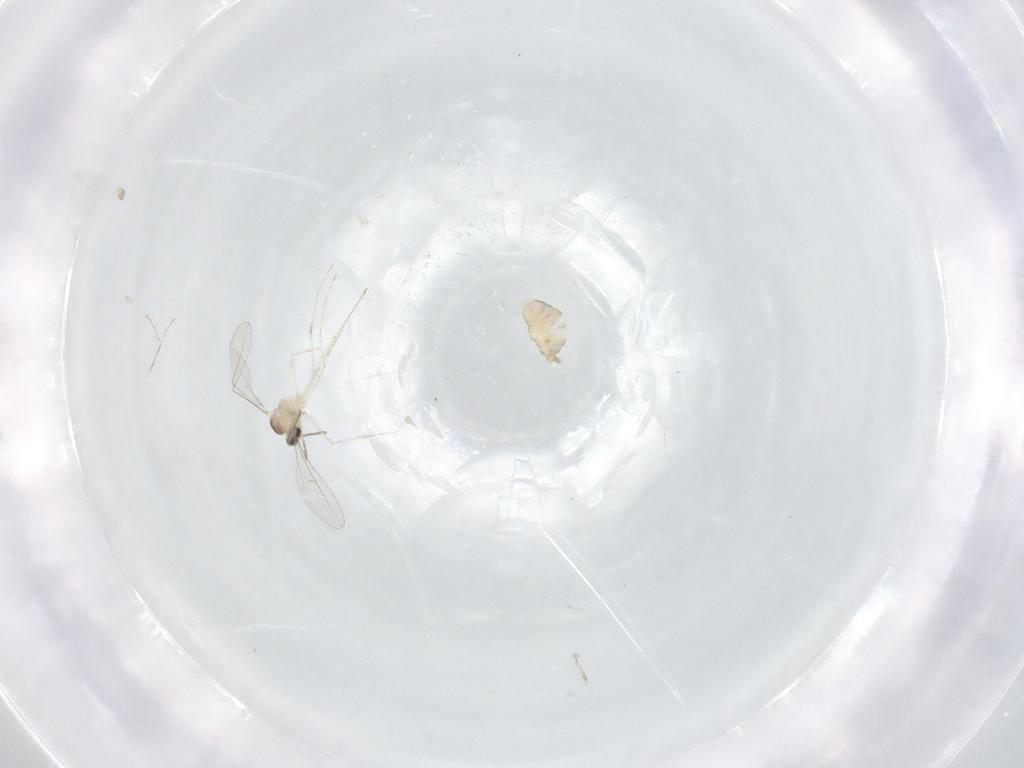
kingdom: Animalia
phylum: Arthropoda
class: Insecta
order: Diptera
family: Cecidomyiidae
